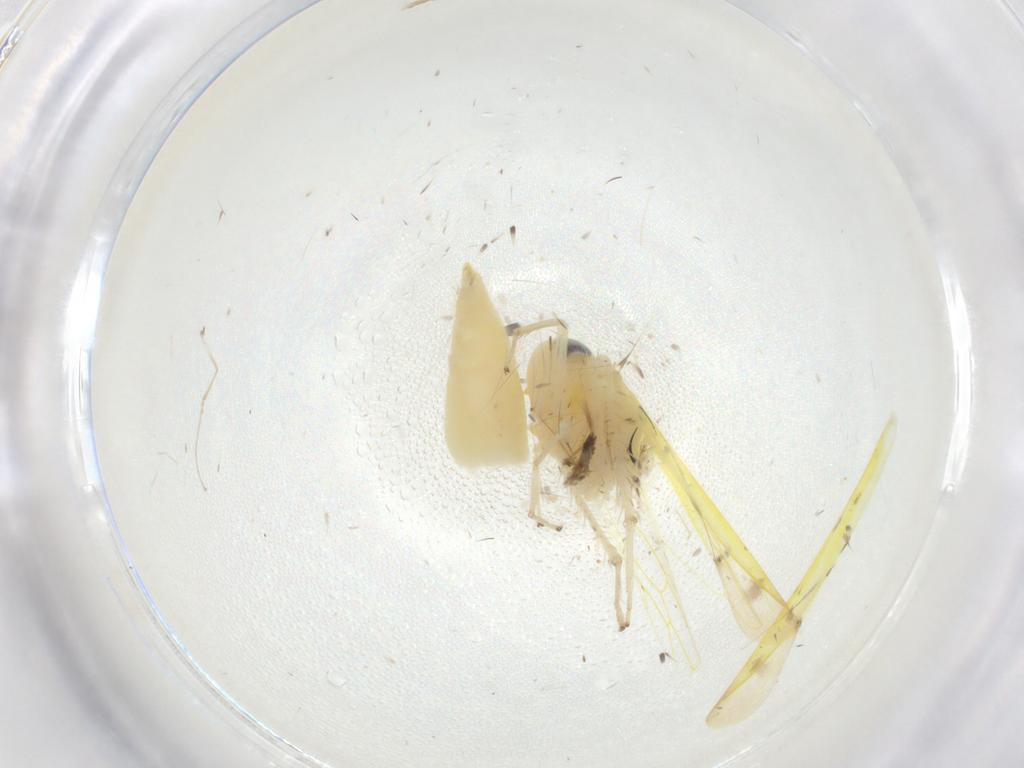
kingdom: Animalia
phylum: Arthropoda
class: Insecta
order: Hemiptera
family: Cicadellidae
